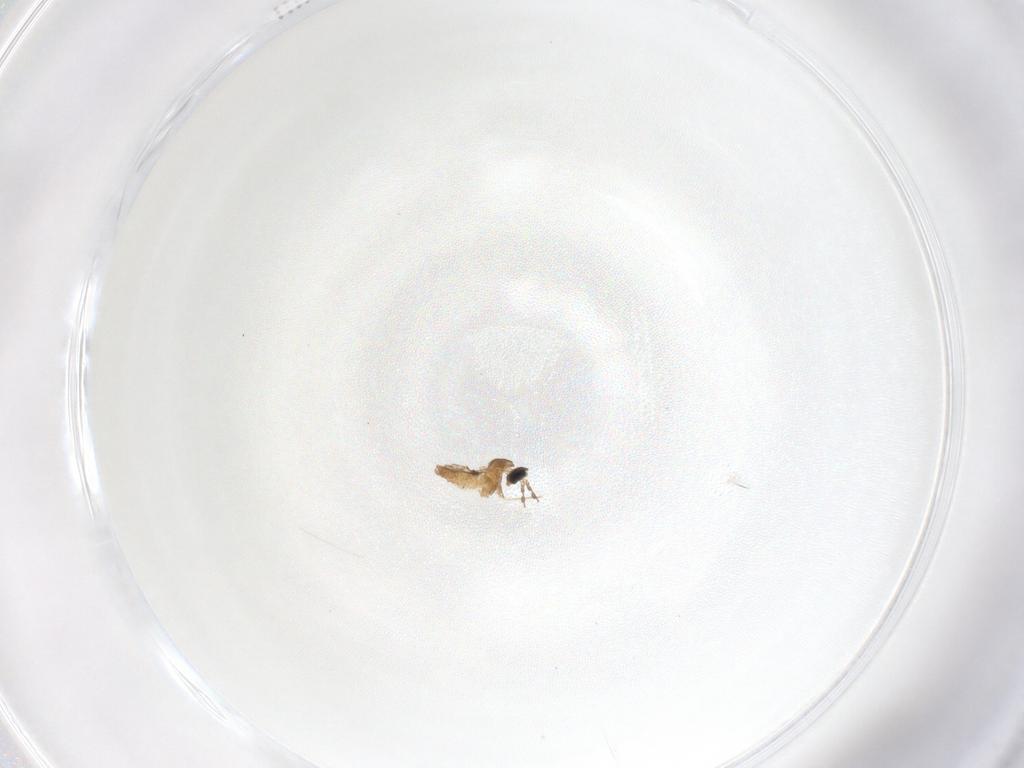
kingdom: Animalia
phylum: Arthropoda
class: Insecta
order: Diptera
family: Cecidomyiidae
